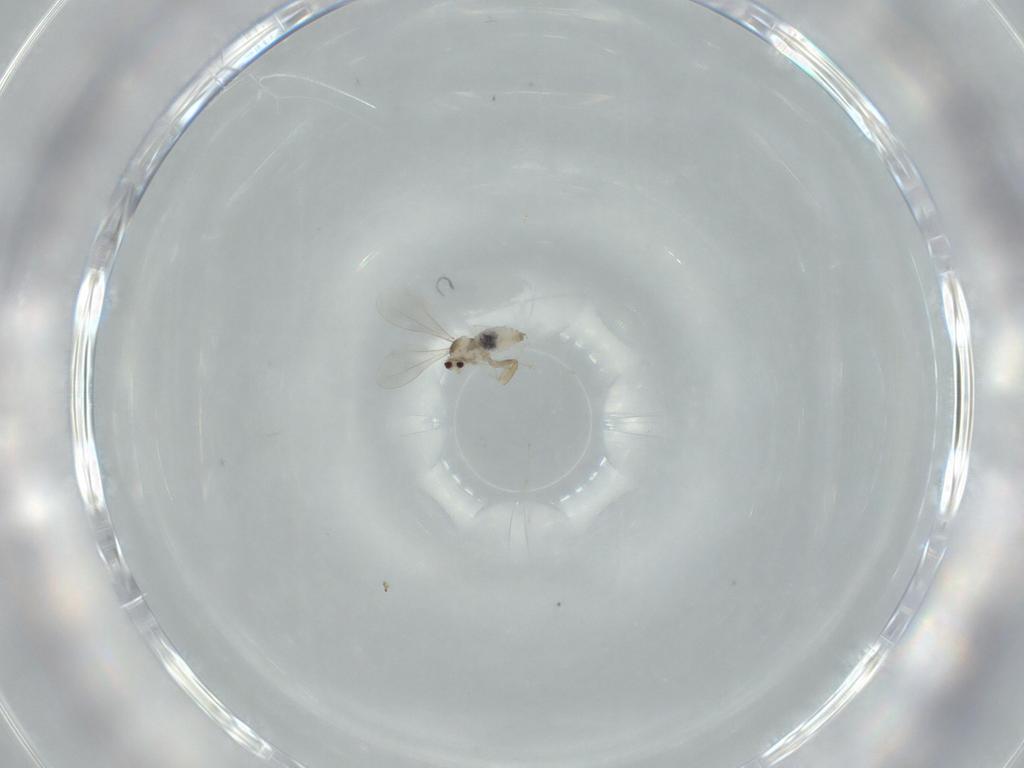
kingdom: Animalia
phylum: Arthropoda
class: Insecta
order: Diptera
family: Cecidomyiidae
